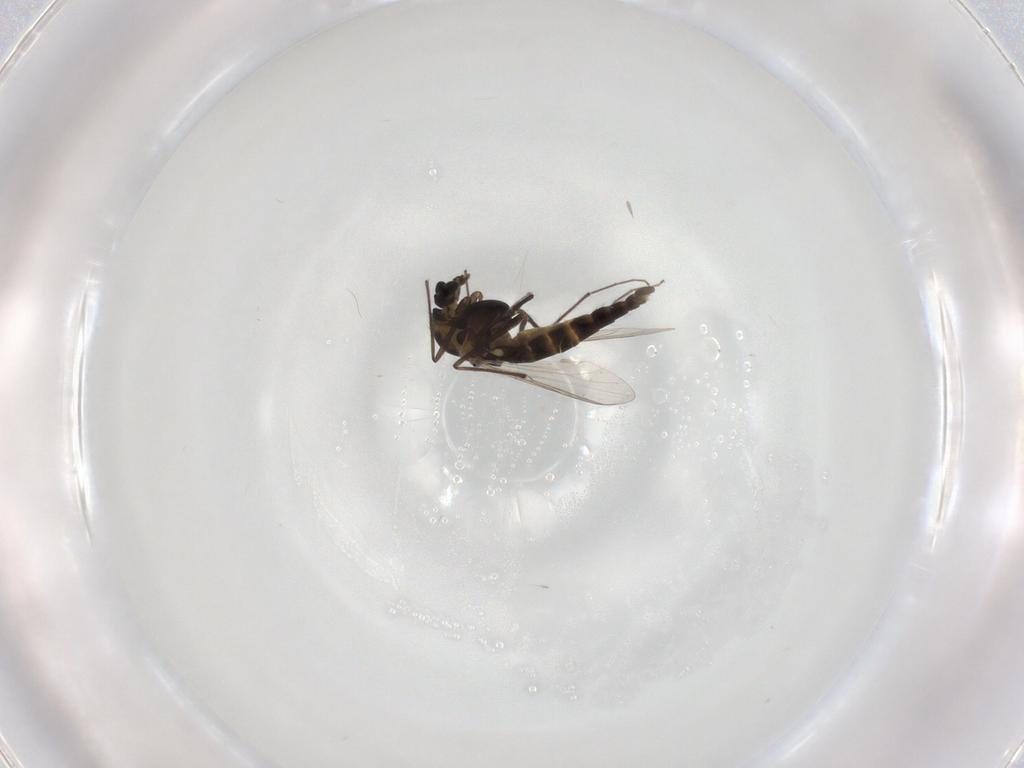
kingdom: Animalia
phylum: Arthropoda
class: Insecta
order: Diptera
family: Chironomidae
